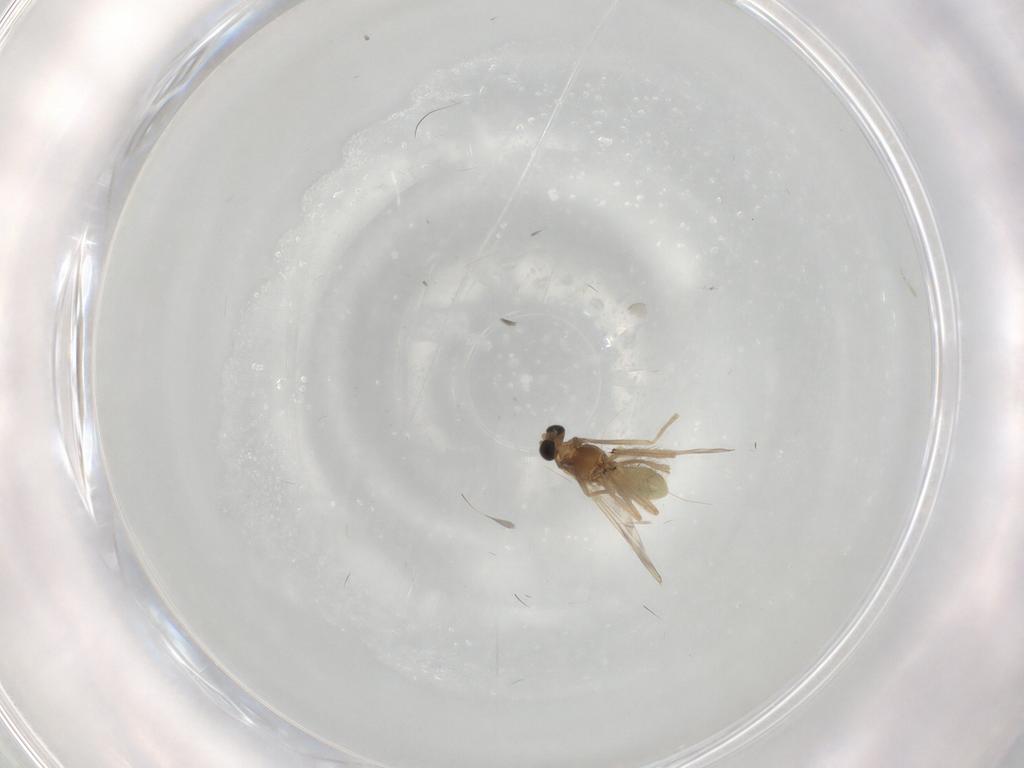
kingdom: Animalia
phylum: Arthropoda
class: Insecta
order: Diptera
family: Chironomidae
